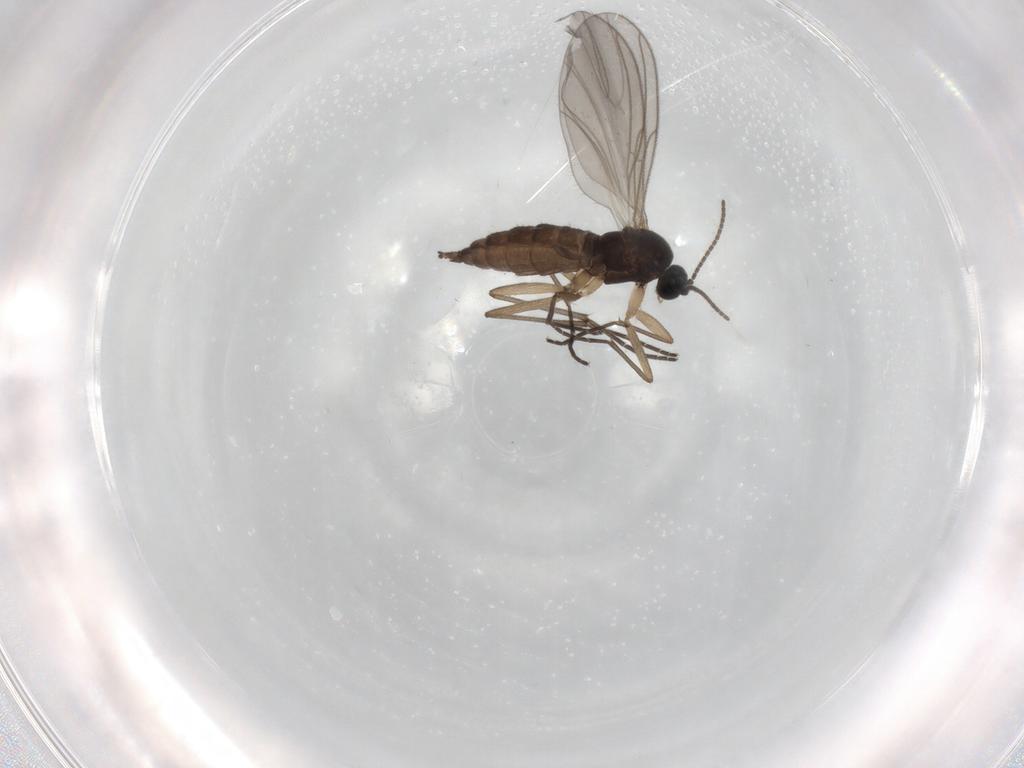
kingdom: Animalia
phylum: Arthropoda
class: Insecta
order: Diptera
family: Sciaridae
